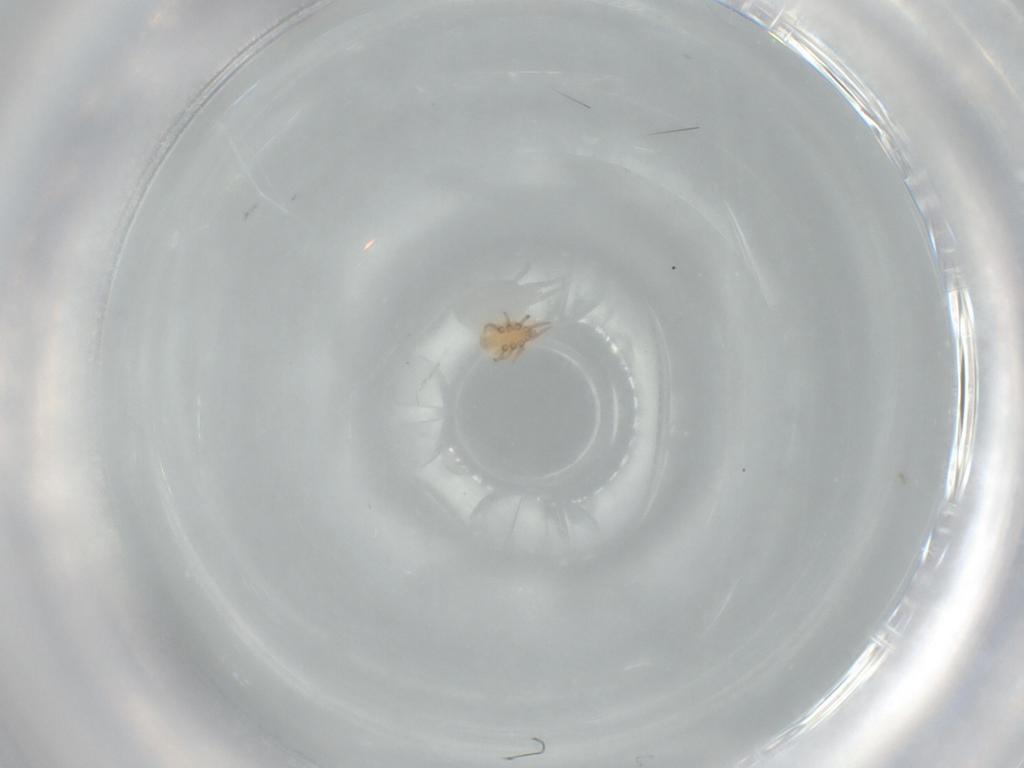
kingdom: Animalia
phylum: Arthropoda
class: Arachnida
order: Mesostigmata
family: Dinychidae
